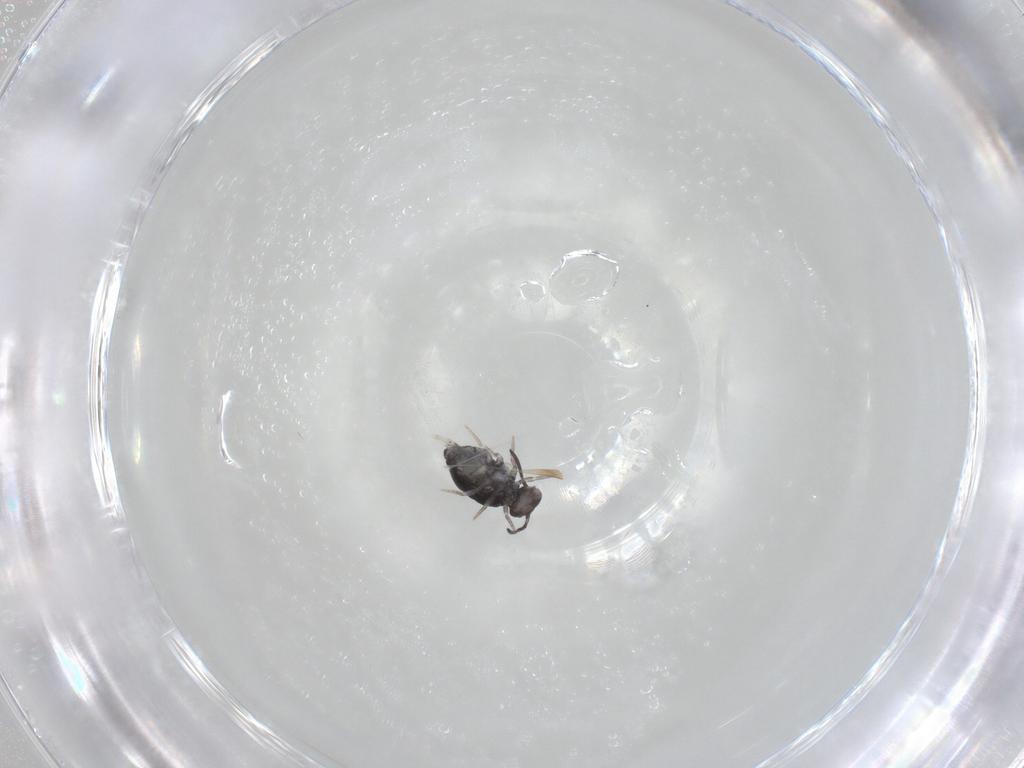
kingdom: Animalia
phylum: Arthropoda
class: Collembola
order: Symphypleona
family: Katiannidae
